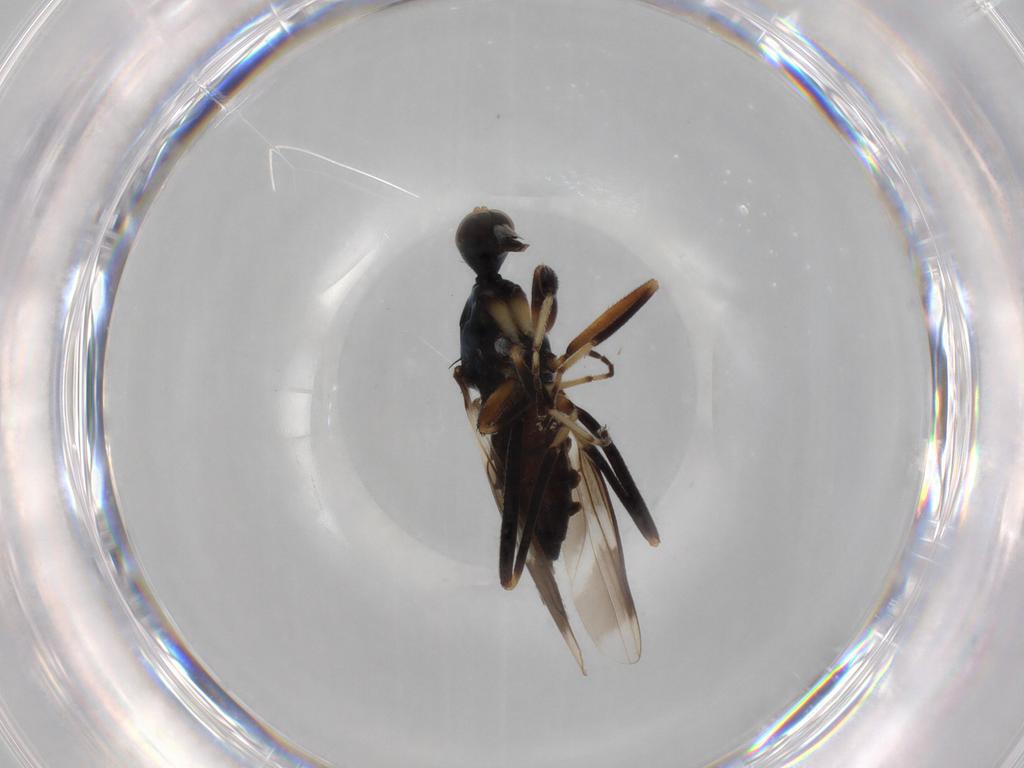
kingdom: Animalia
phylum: Arthropoda
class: Insecta
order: Diptera
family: Hybotidae
